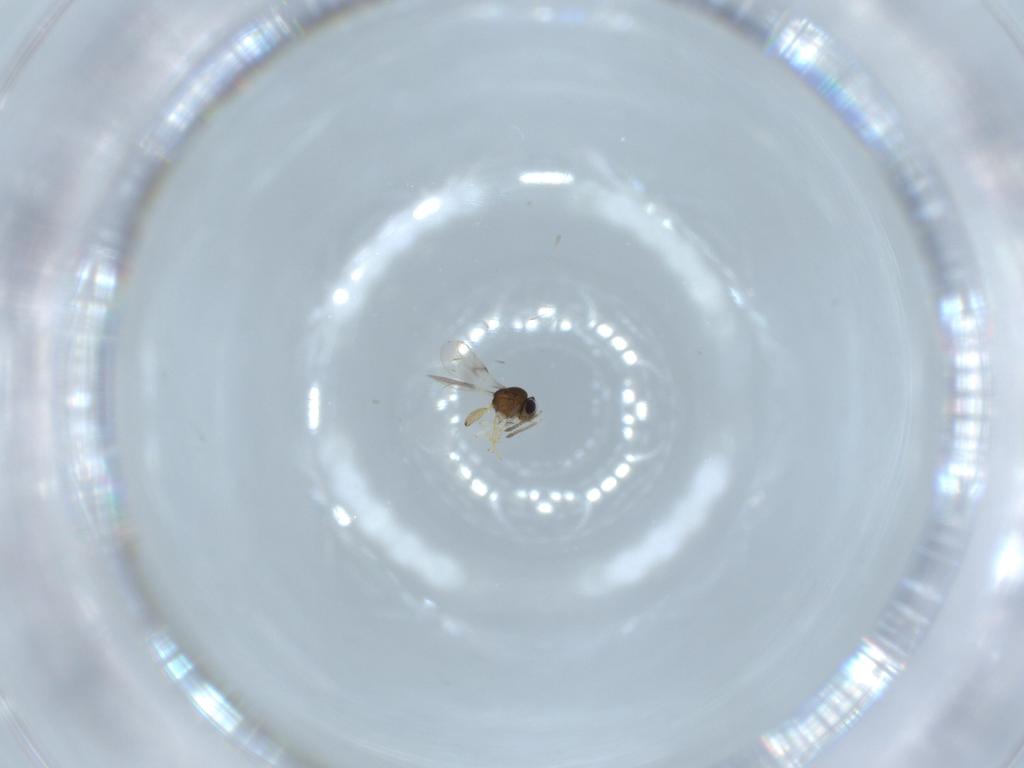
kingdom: Animalia
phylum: Arthropoda
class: Insecta
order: Hymenoptera
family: Scelionidae
